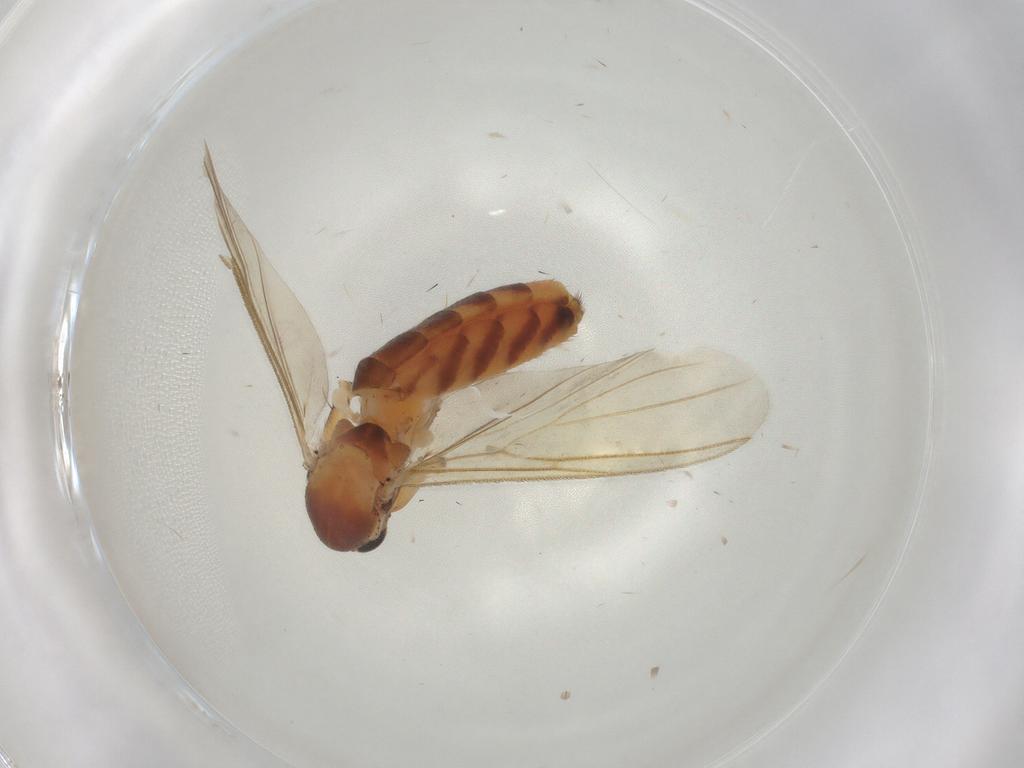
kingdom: Animalia
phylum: Arthropoda
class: Insecta
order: Diptera
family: Mycetophilidae
